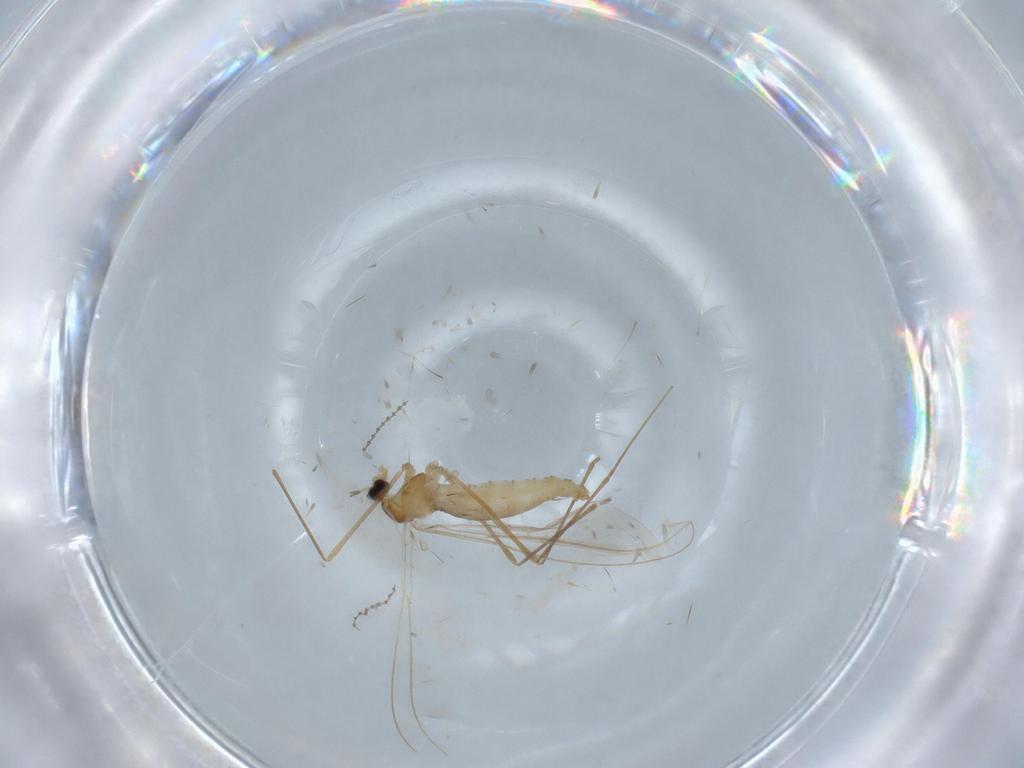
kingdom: Animalia
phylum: Arthropoda
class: Insecta
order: Diptera
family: Cecidomyiidae
